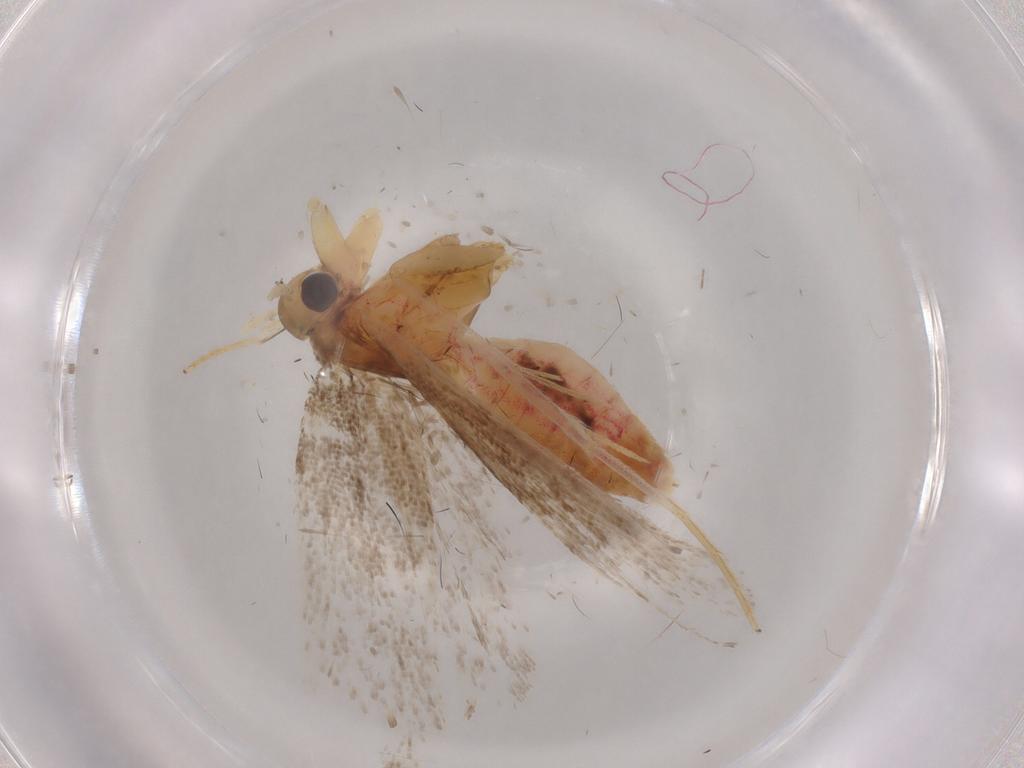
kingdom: Animalia
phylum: Arthropoda
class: Insecta
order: Lepidoptera
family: Lecithoceridae
